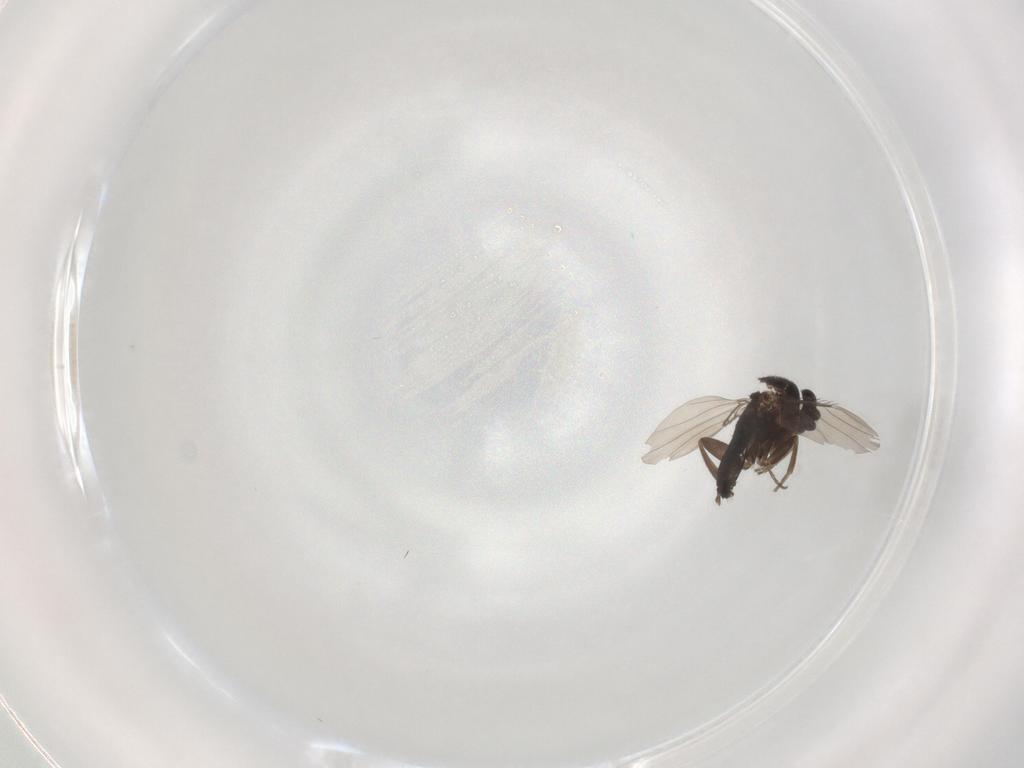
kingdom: Animalia
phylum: Arthropoda
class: Insecta
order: Diptera
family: Phoridae
